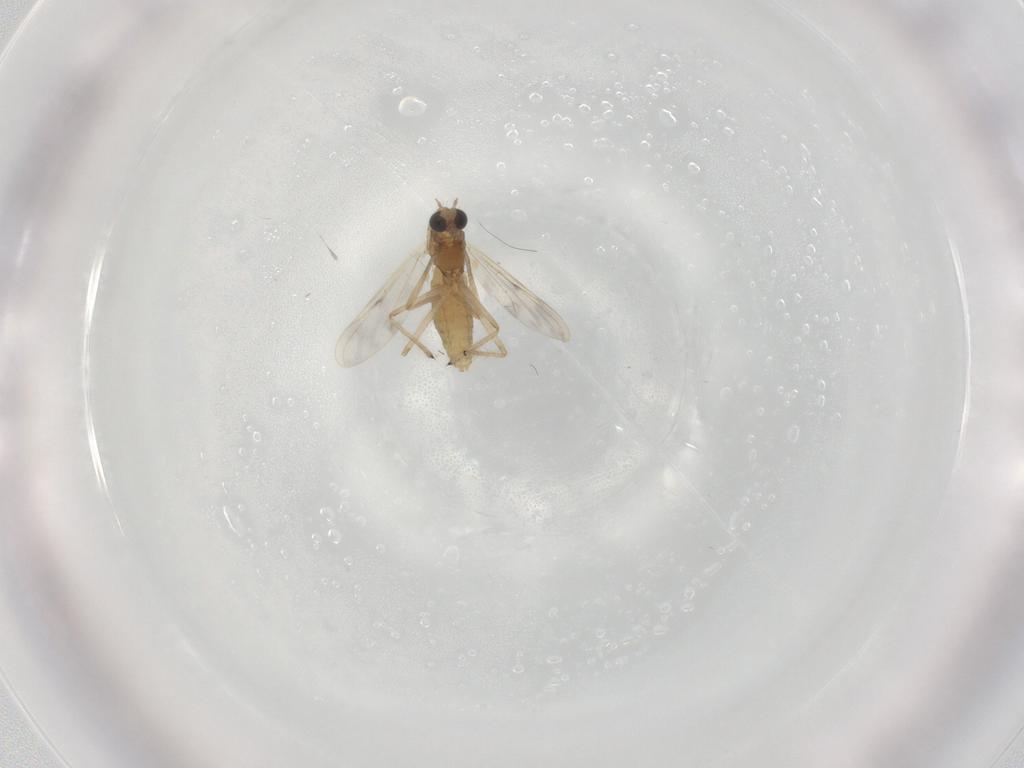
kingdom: Animalia
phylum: Arthropoda
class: Insecta
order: Diptera
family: Chironomidae
